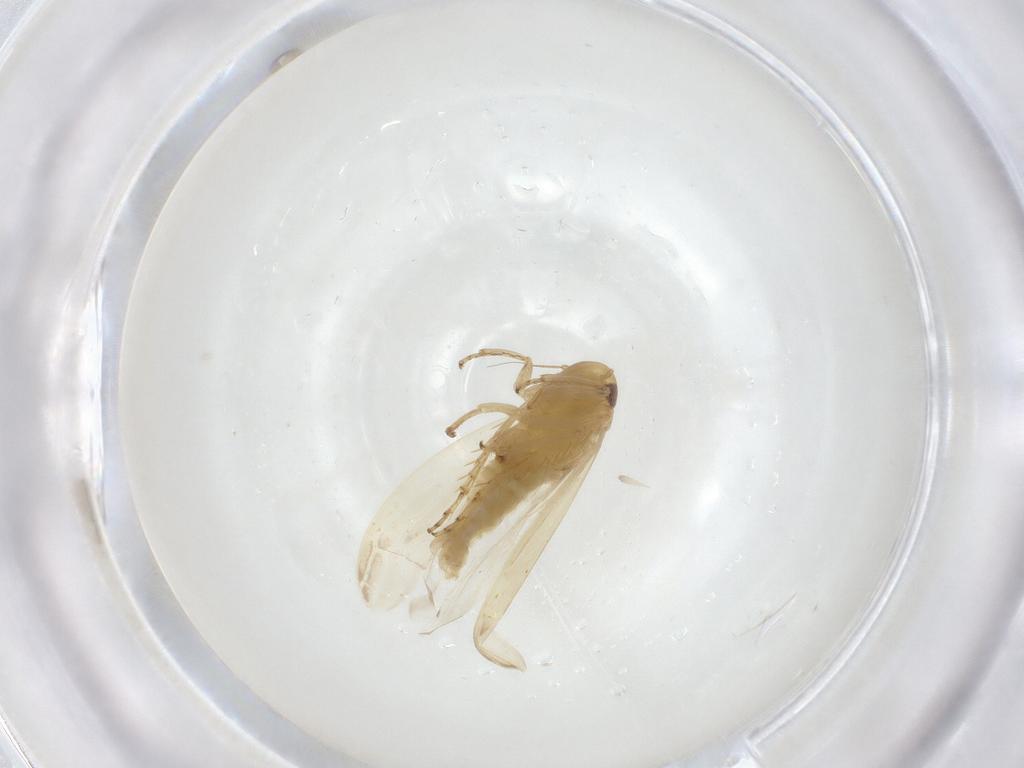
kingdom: Animalia
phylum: Arthropoda
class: Insecta
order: Hemiptera
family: Cicadellidae
